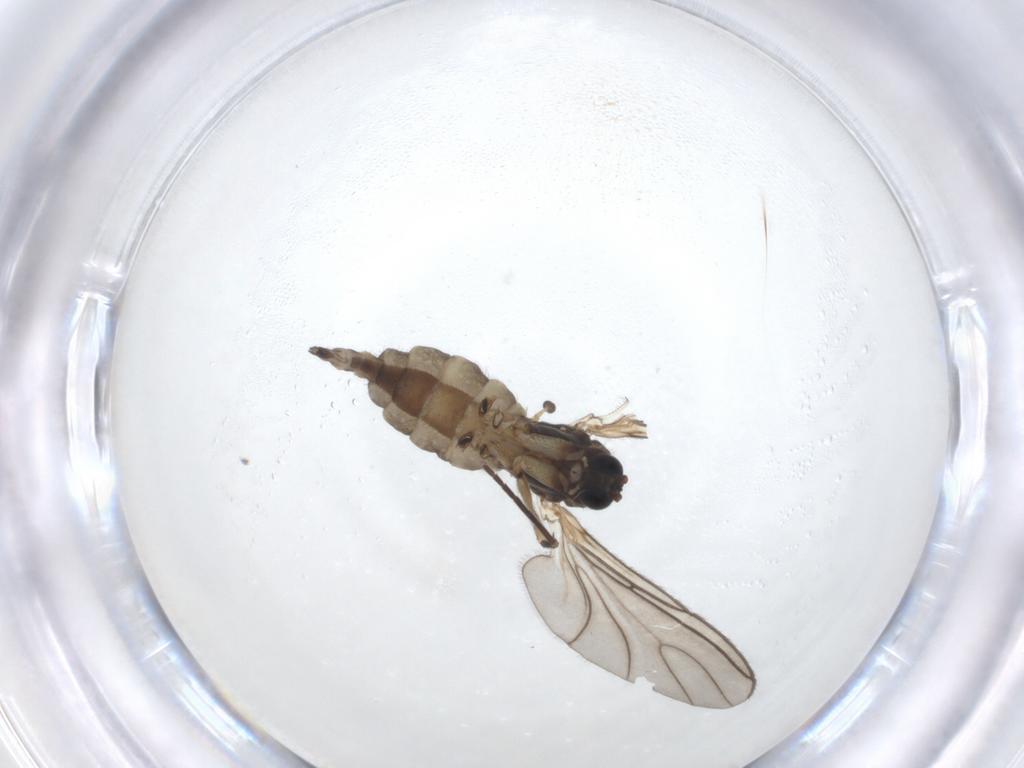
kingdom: Animalia
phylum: Arthropoda
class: Insecta
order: Diptera
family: Sciaridae
